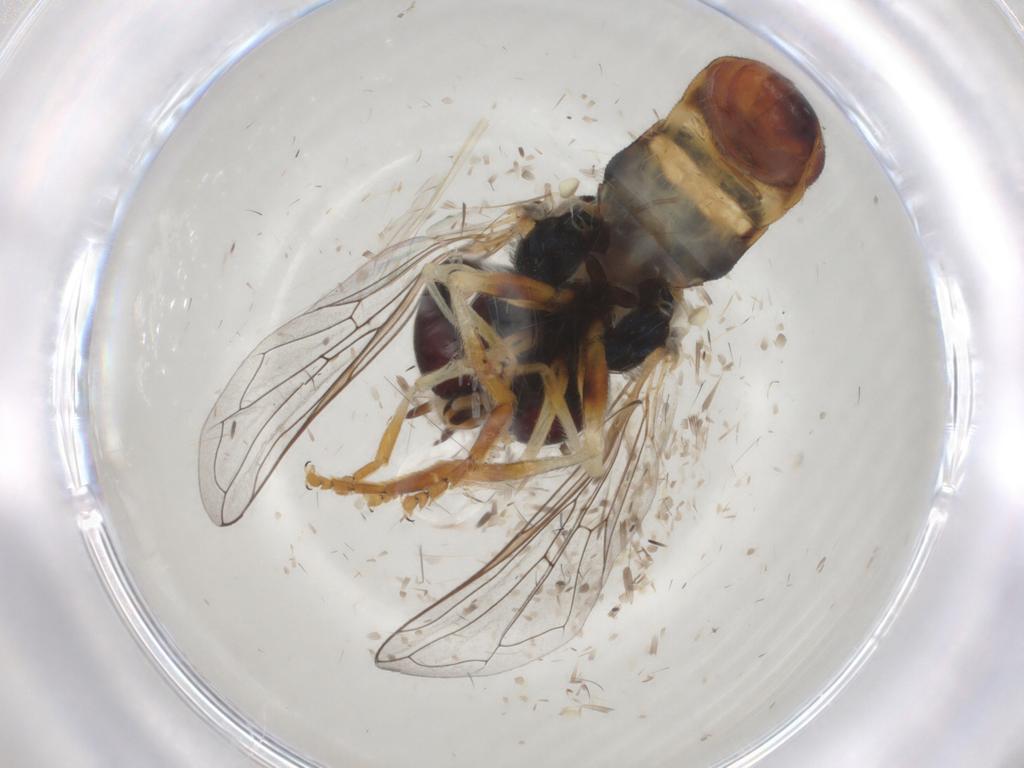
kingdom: Animalia
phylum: Arthropoda
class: Insecta
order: Diptera
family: Syrphidae
